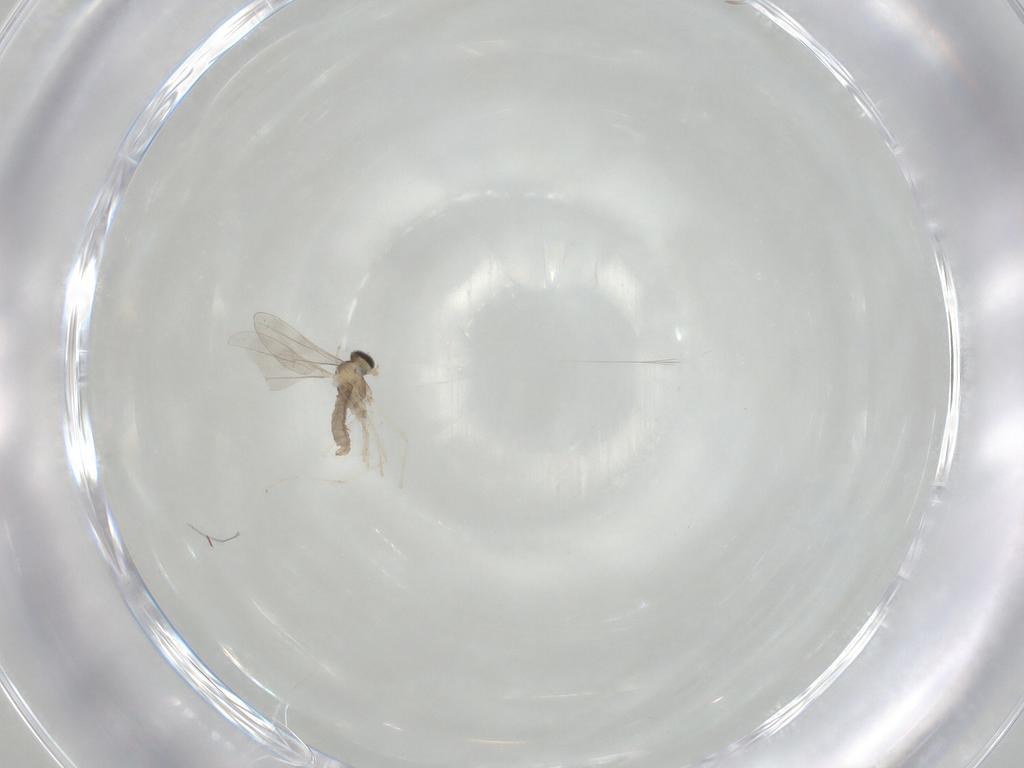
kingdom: Animalia
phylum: Arthropoda
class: Insecta
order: Diptera
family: Cecidomyiidae
